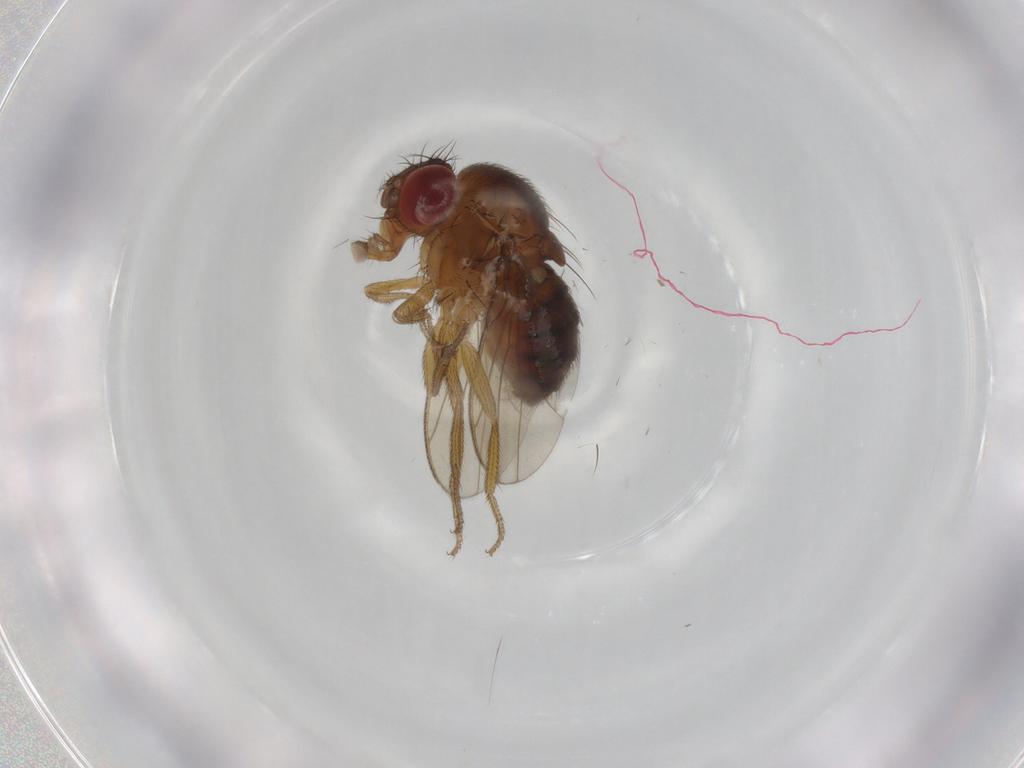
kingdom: Animalia
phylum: Arthropoda
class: Insecta
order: Diptera
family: Drosophilidae
